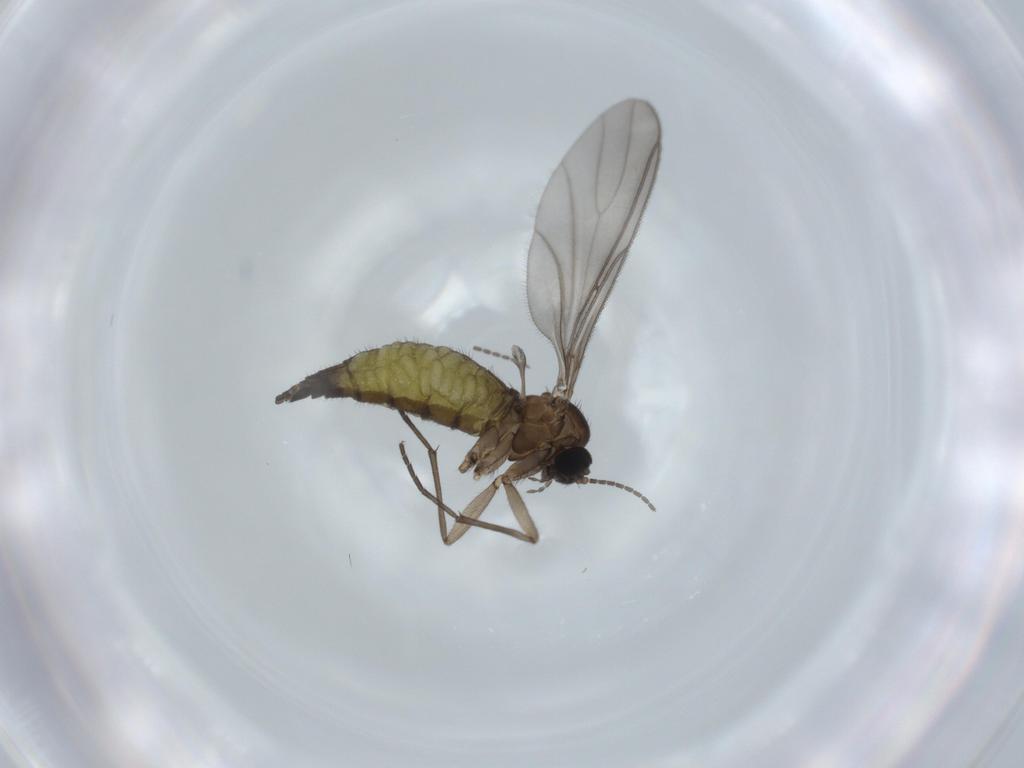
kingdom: Animalia
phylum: Arthropoda
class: Insecta
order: Diptera
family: Sciaridae
